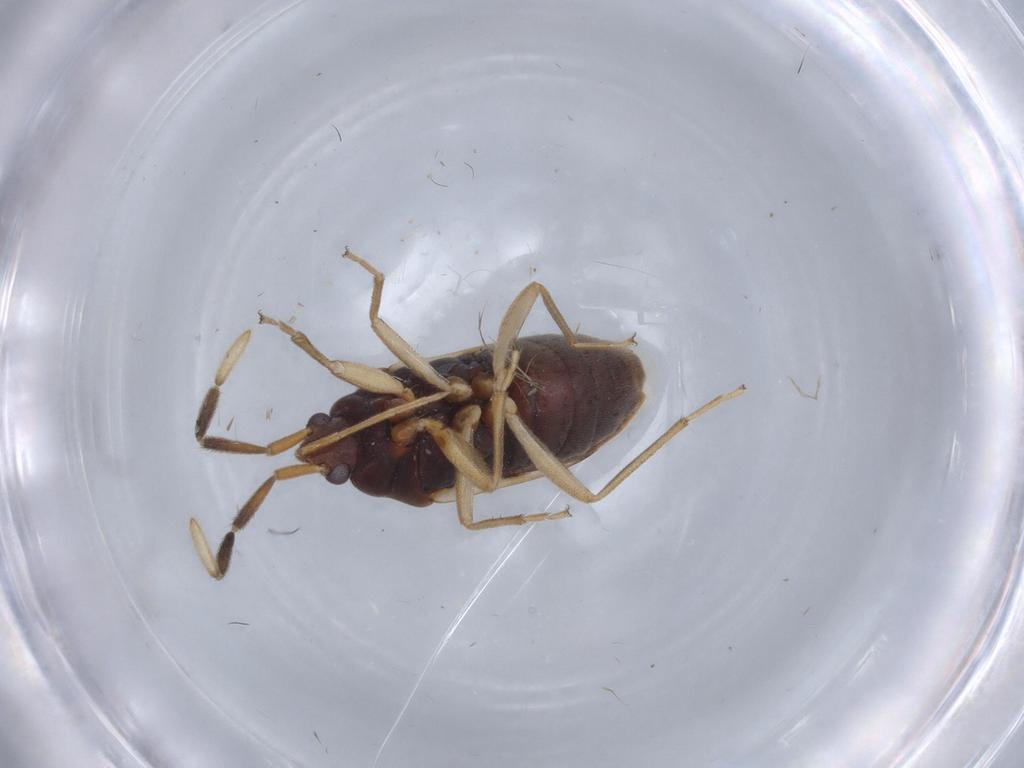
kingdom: Animalia
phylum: Arthropoda
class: Insecta
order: Hemiptera
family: Rhyparochromidae
